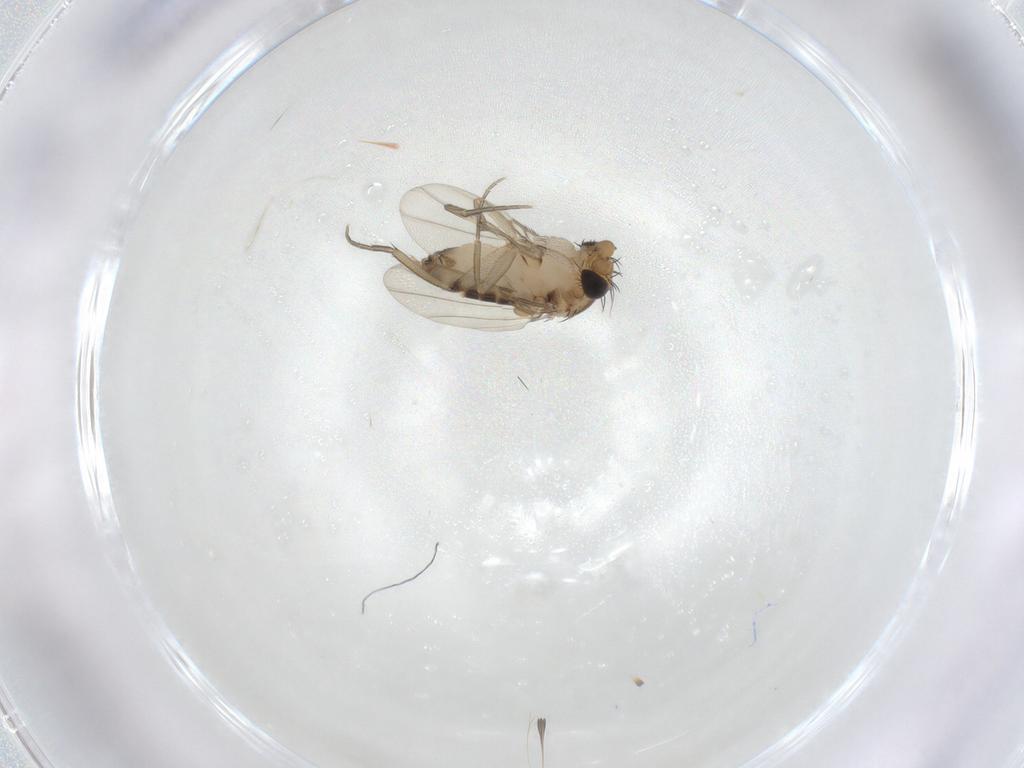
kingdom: Animalia
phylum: Arthropoda
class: Insecta
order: Diptera
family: Phoridae
